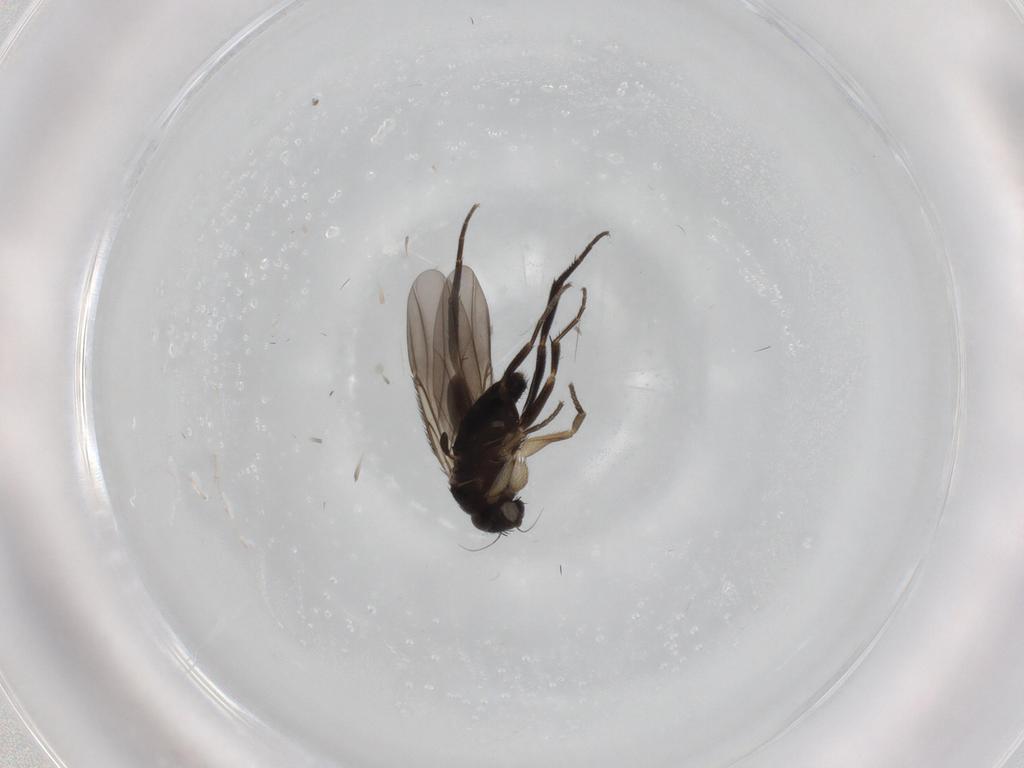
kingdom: Animalia
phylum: Arthropoda
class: Insecta
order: Diptera
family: Phoridae
